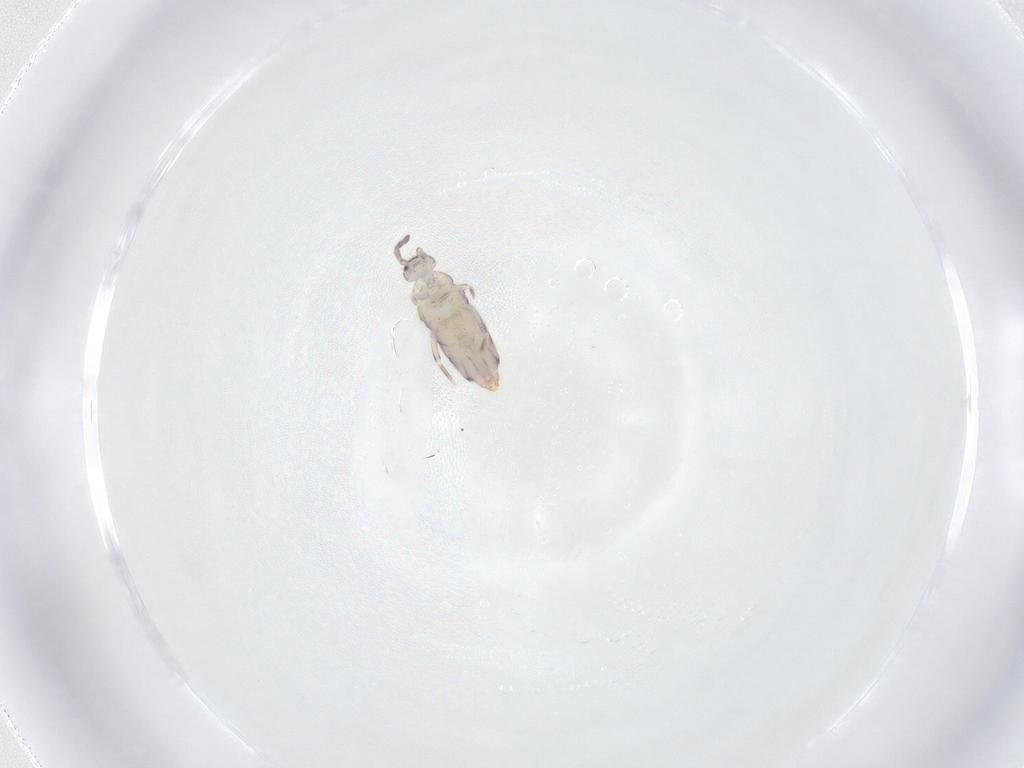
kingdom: Animalia
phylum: Arthropoda
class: Collembola
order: Entomobryomorpha
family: Entomobryidae
